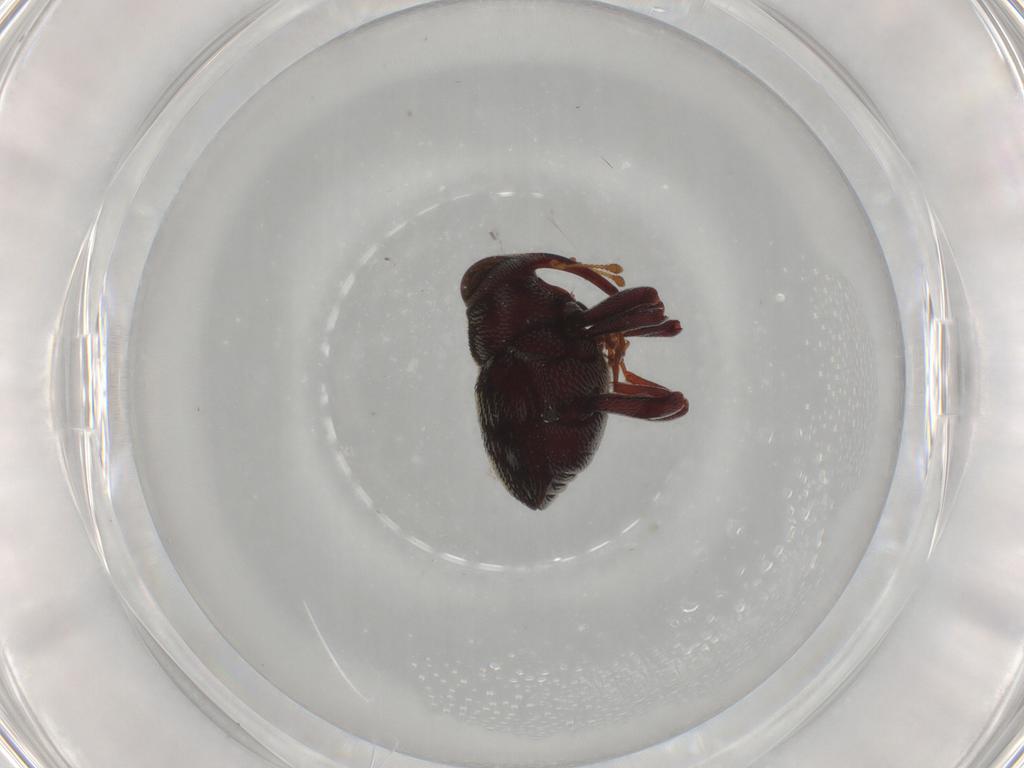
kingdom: Animalia
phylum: Arthropoda
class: Insecta
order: Coleoptera
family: Curculionidae
